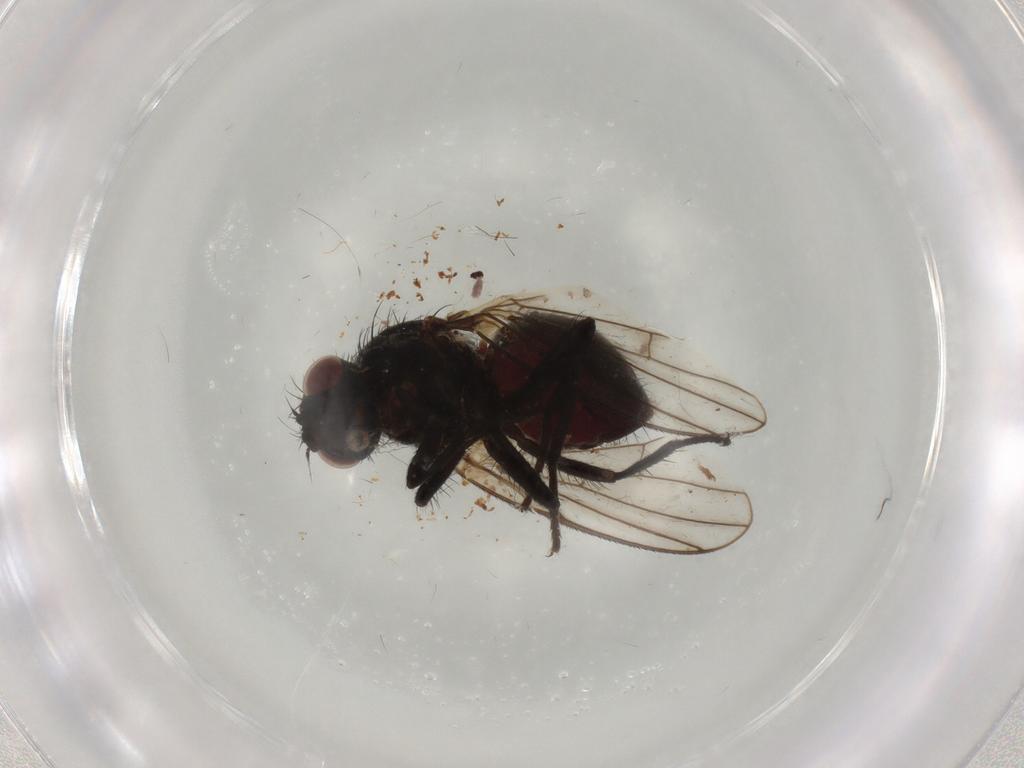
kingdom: Animalia
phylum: Arthropoda
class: Insecta
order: Diptera
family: Sciaridae
